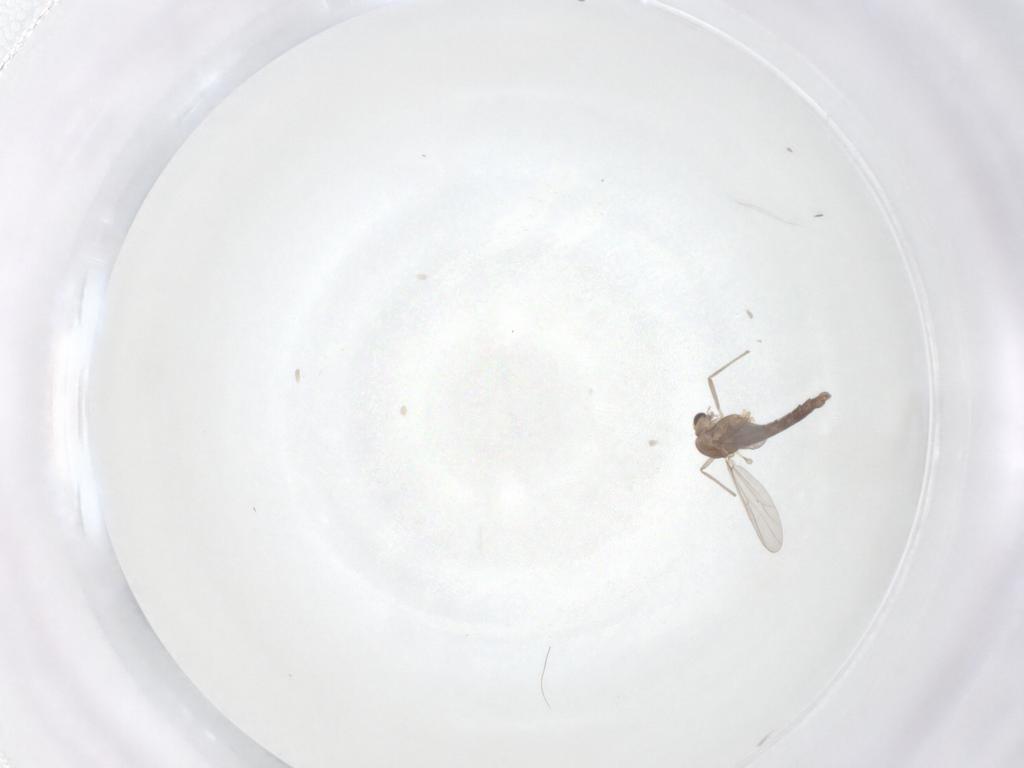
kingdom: Animalia
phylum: Arthropoda
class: Insecta
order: Diptera
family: Chironomidae
